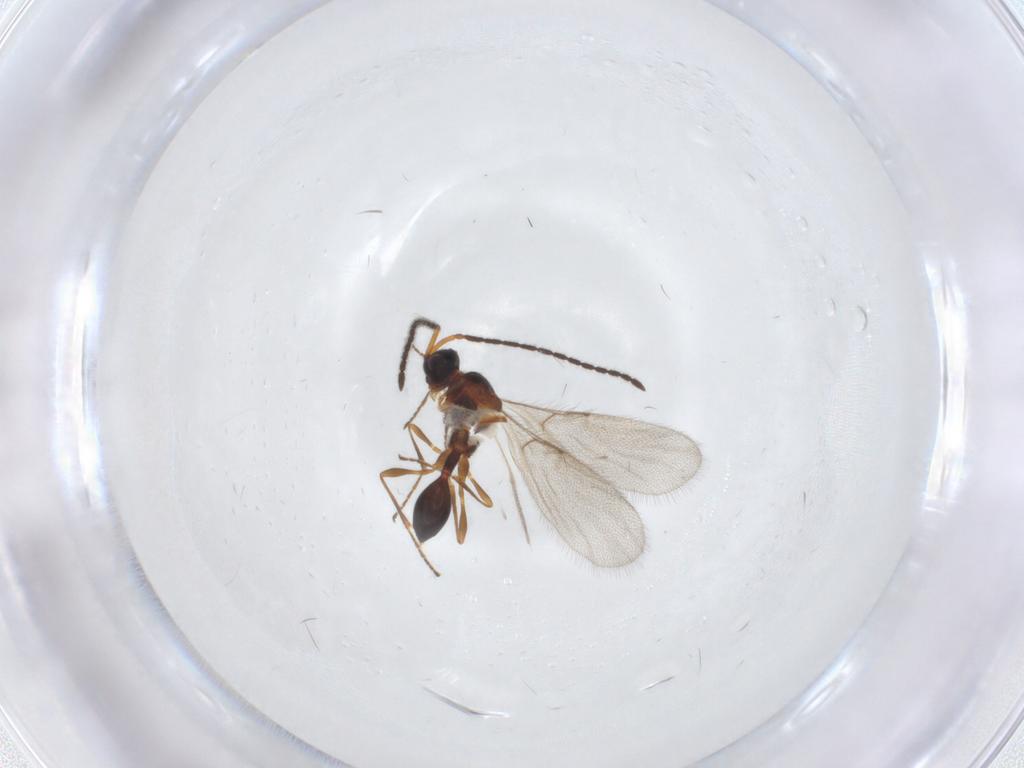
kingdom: Animalia
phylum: Arthropoda
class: Insecta
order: Hymenoptera
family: Diapriidae
